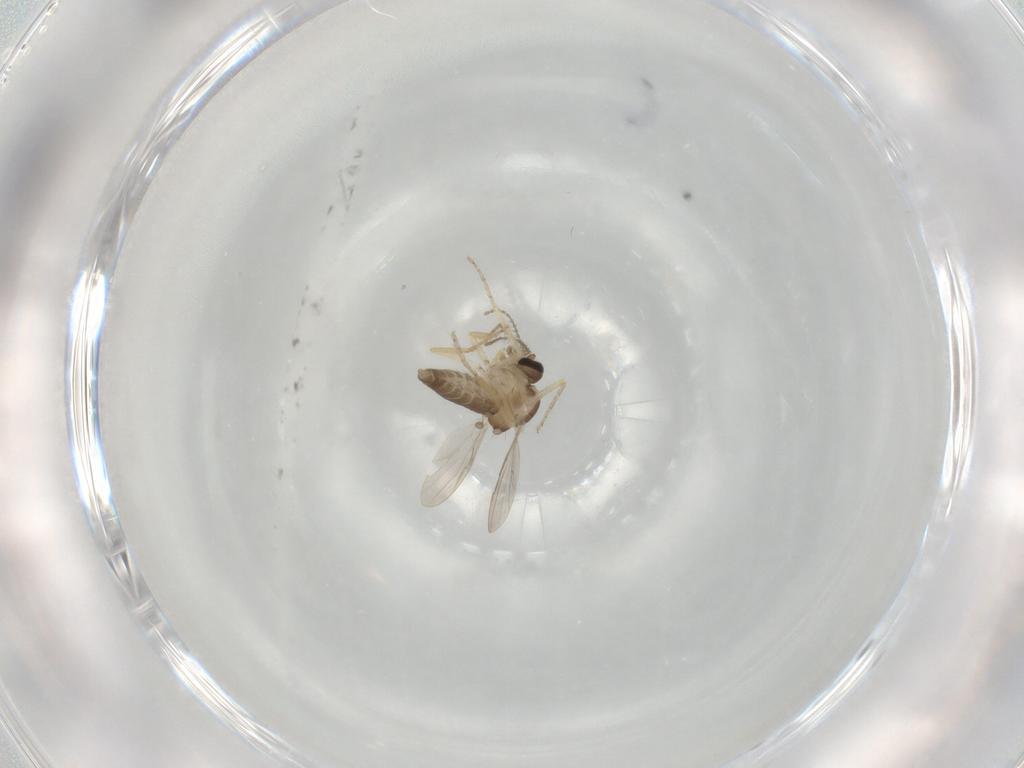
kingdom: Animalia
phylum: Arthropoda
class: Insecta
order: Diptera
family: Ceratopogonidae
